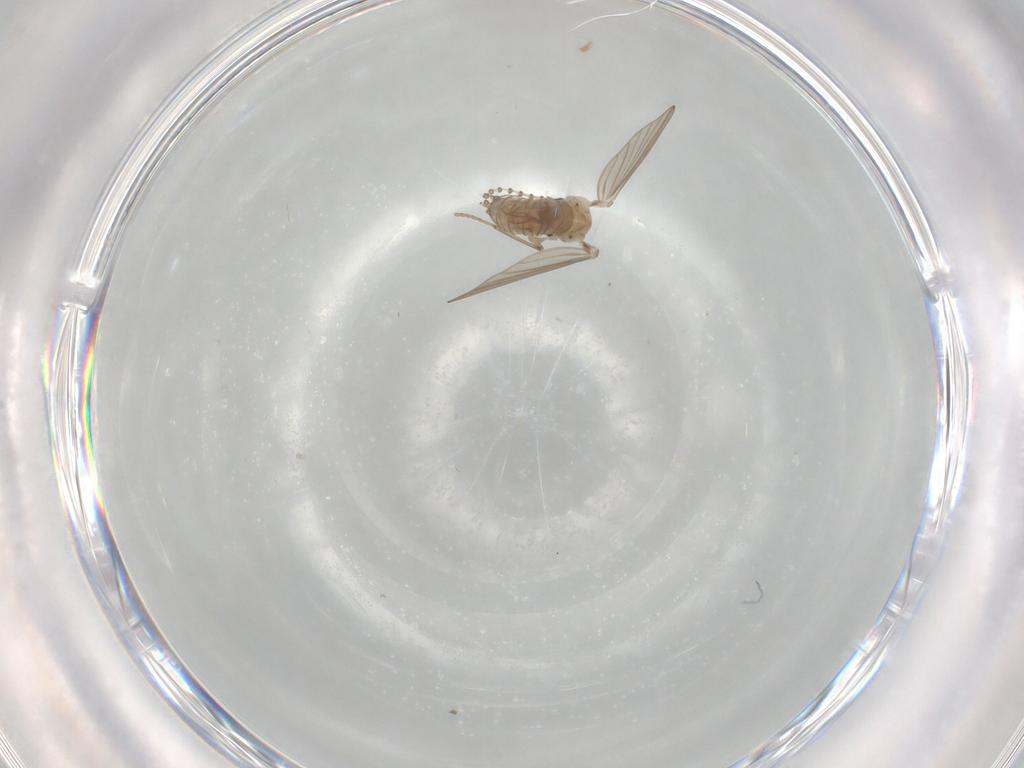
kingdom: Animalia
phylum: Arthropoda
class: Insecta
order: Diptera
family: Psychodidae
